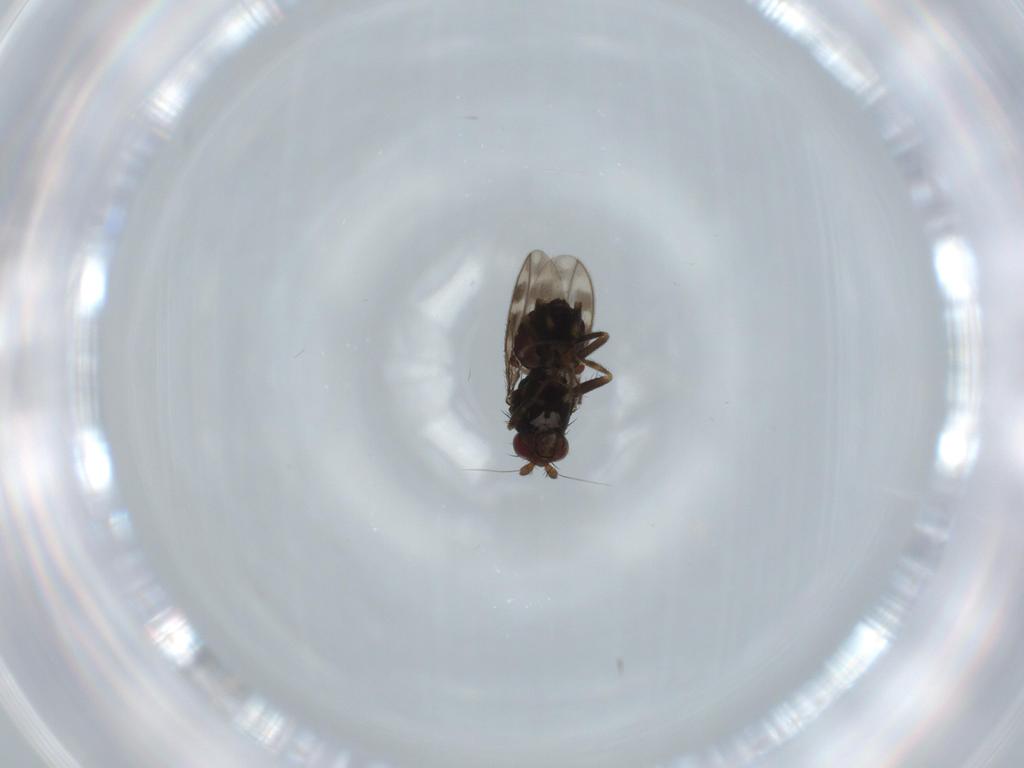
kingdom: Animalia
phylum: Arthropoda
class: Insecta
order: Diptera
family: Sphaeroceridae
